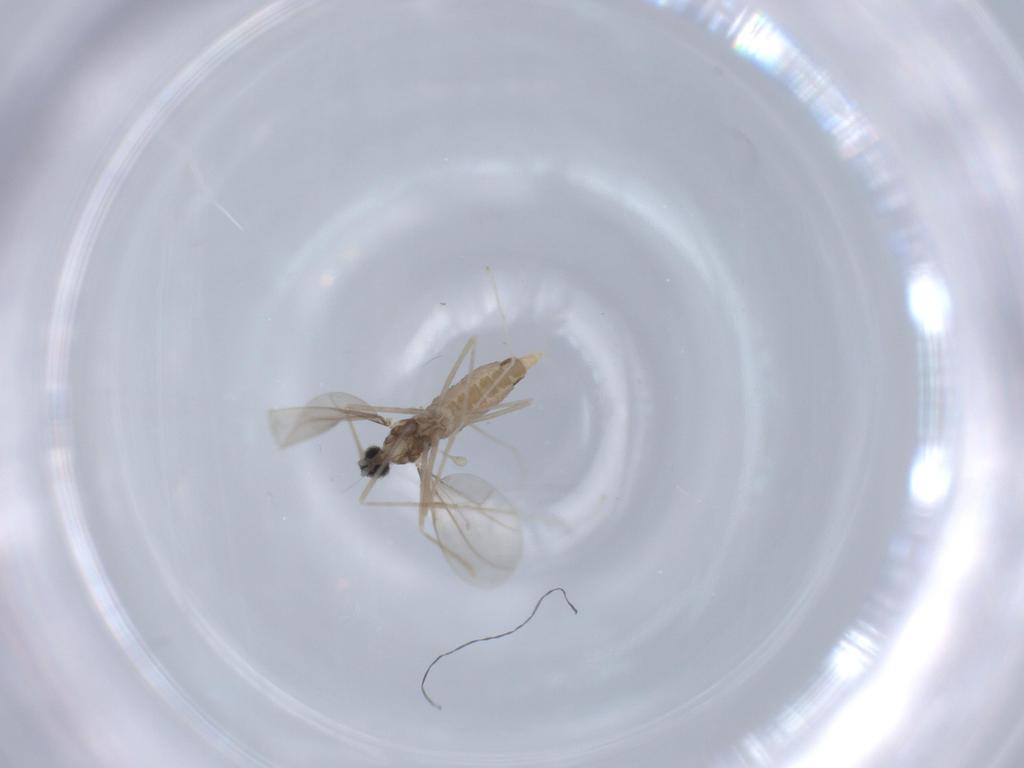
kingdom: Animalia
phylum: Arthropoda
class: Insecta
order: Diptera
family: Cecidomyiidae
